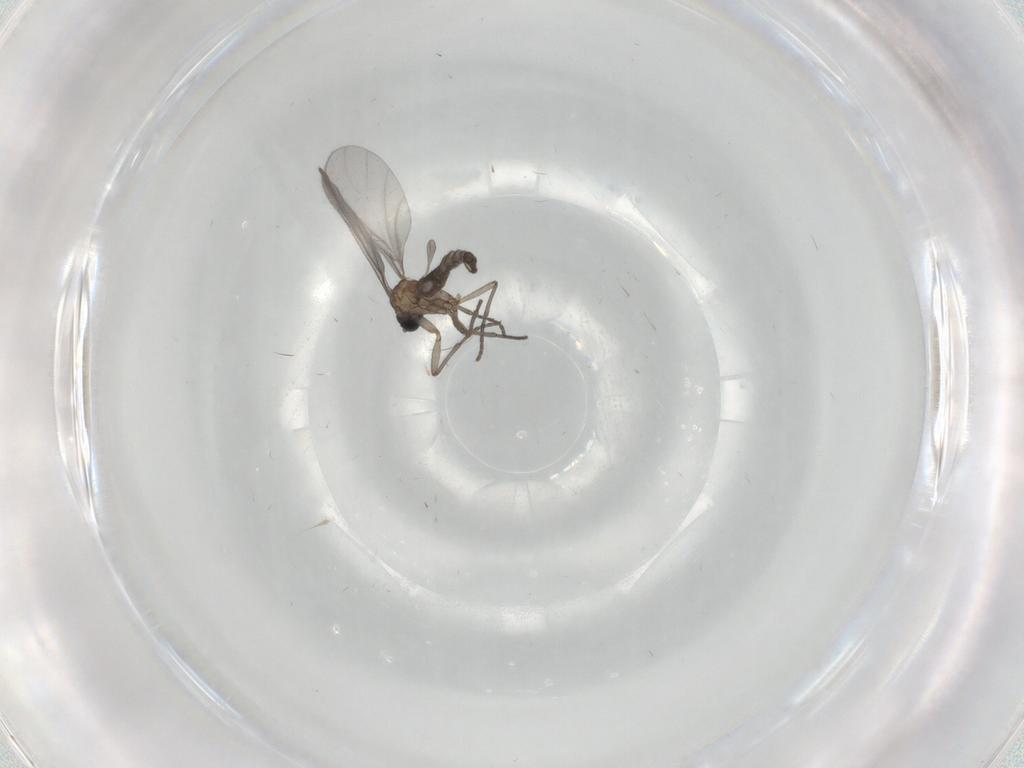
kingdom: Animalia
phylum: Arthropoda
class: Insecta
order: Diptera
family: Sciaridae
